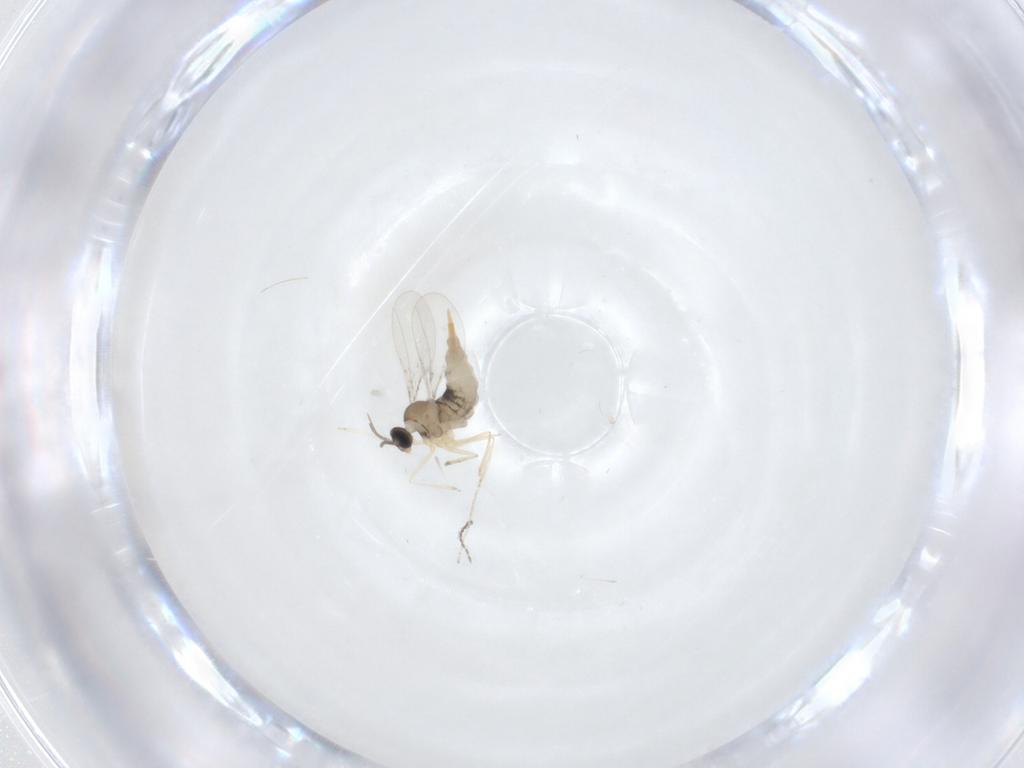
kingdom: Animalia
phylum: Arthropoda
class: Insecta
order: Diptera
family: Cecidomyiidae
